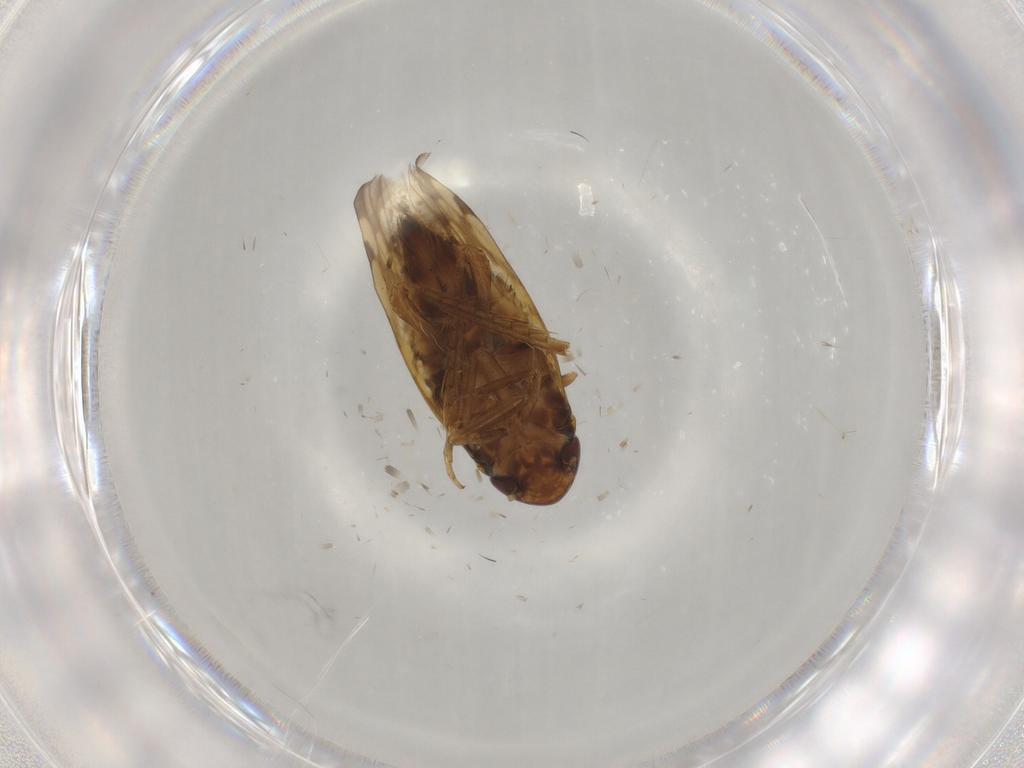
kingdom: Animalia
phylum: Arthropoda
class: Insecta
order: Hemiptera
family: Cicadellidae
